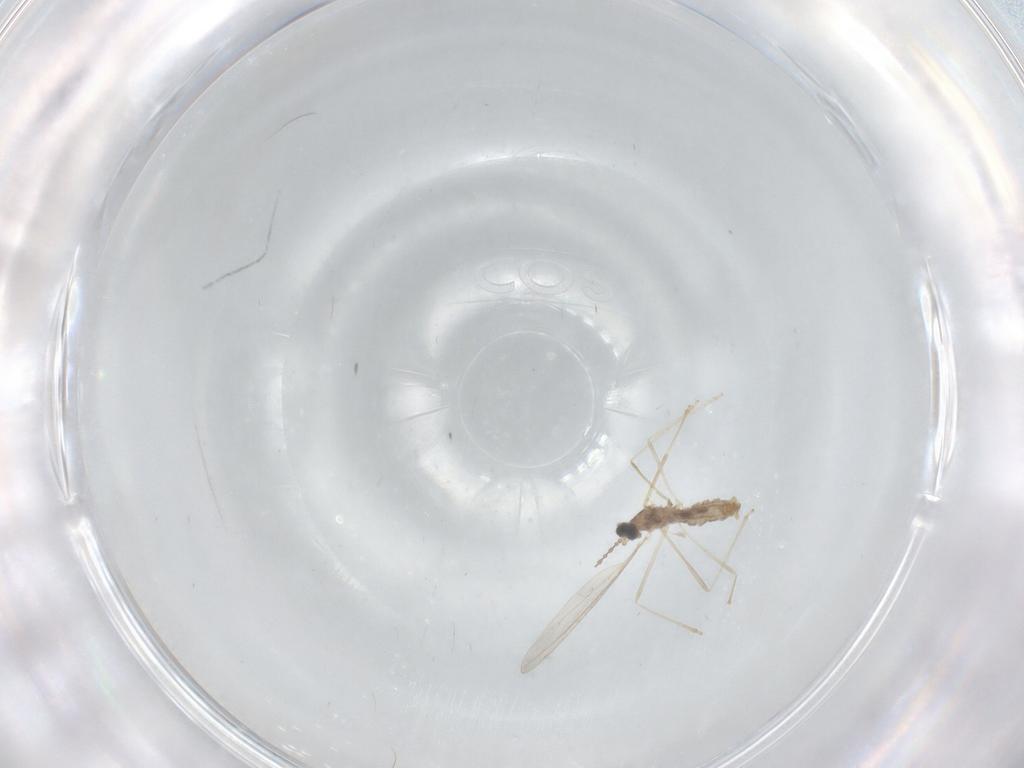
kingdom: Animalia
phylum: Arthropoda
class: Insecta
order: Diptera
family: Cecidomyiidae
